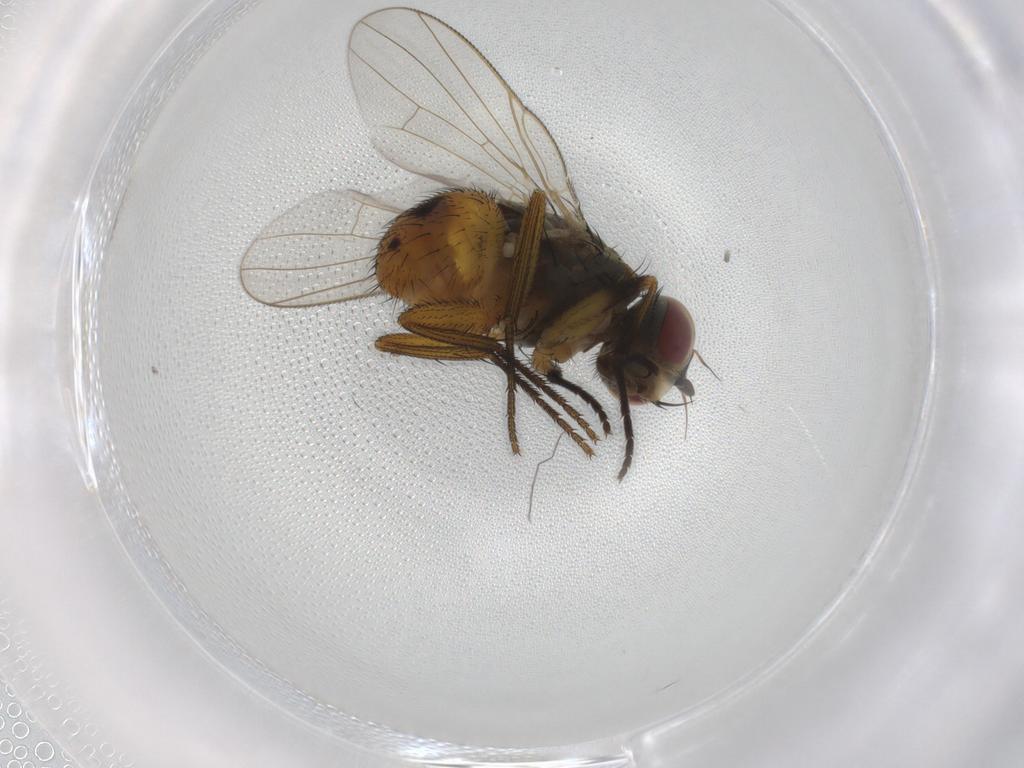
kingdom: Animalia
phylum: Arthropoda
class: Insecta
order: Diptera
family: Muscidae
